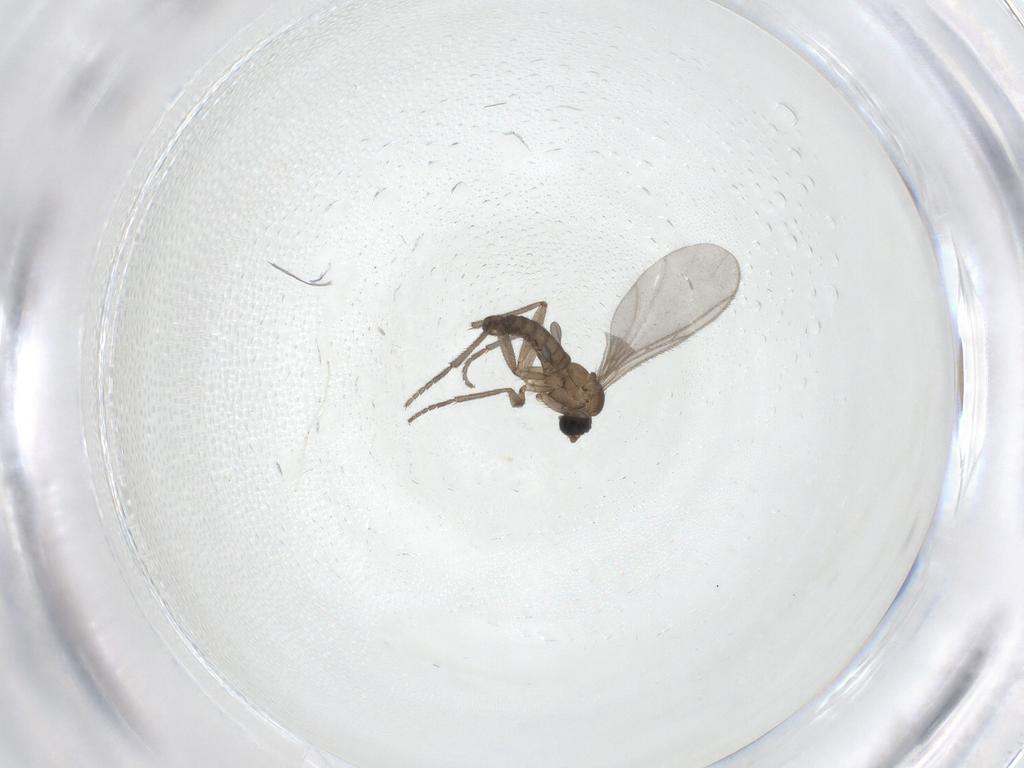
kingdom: Animalia
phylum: Arthropoda
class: Insecta
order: Diptera
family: Sciaridae
